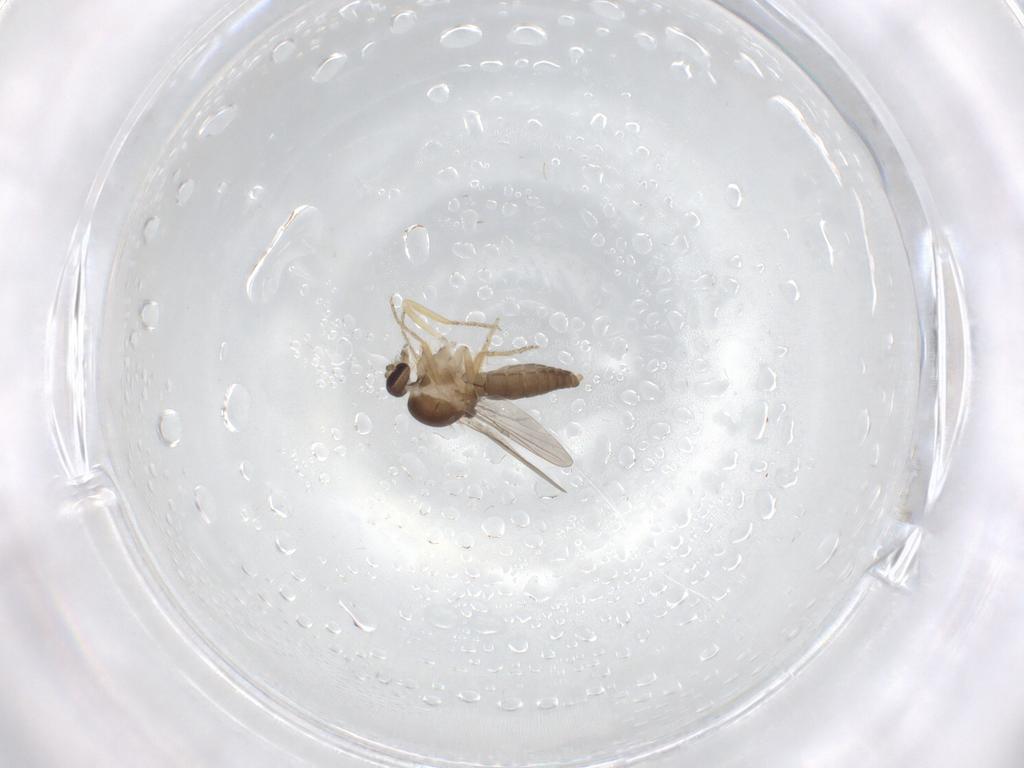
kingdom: Animalia
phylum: Arthropoda
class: Insecta
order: Diptera
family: Ceratopogonidae
